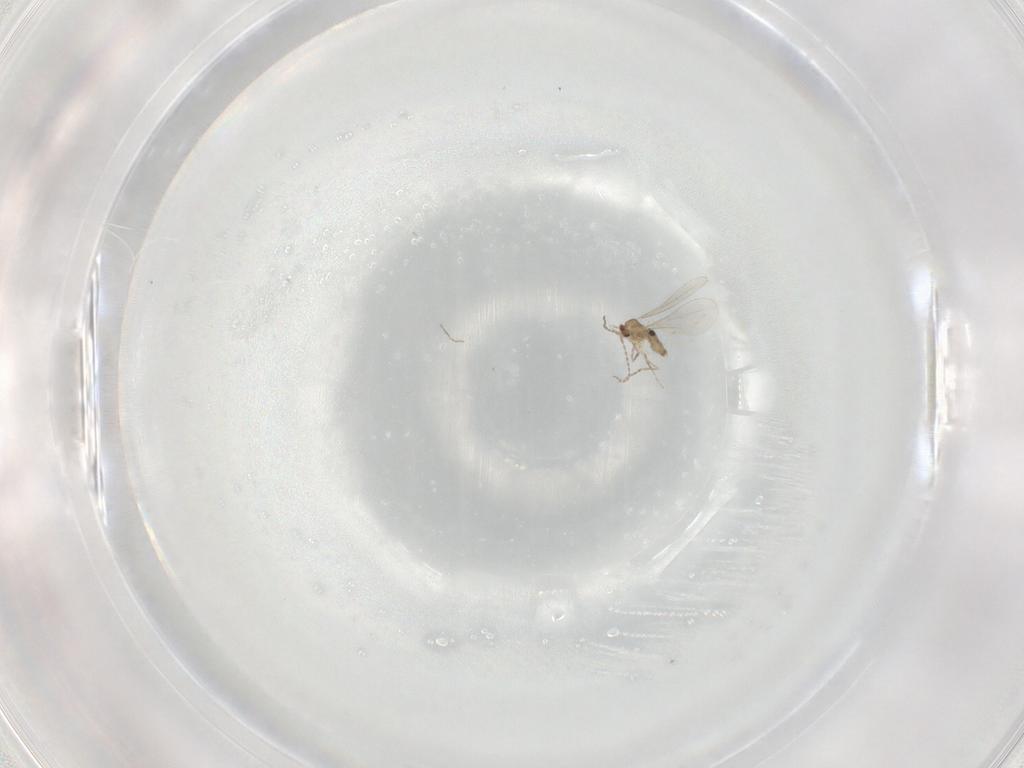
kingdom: Animalia
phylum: Arthropoda
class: Insecta
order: Diptera
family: Cecidomyiidae
